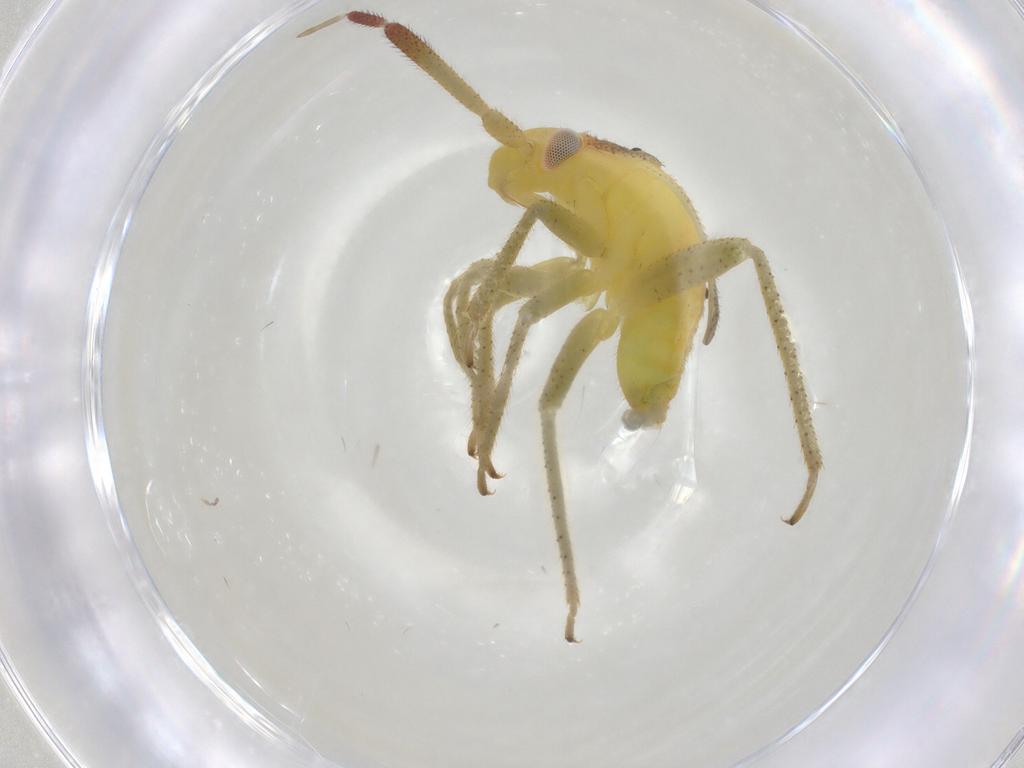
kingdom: Animalia
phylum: Arthropoda
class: Insecta
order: Hemiptera
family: Miridae
